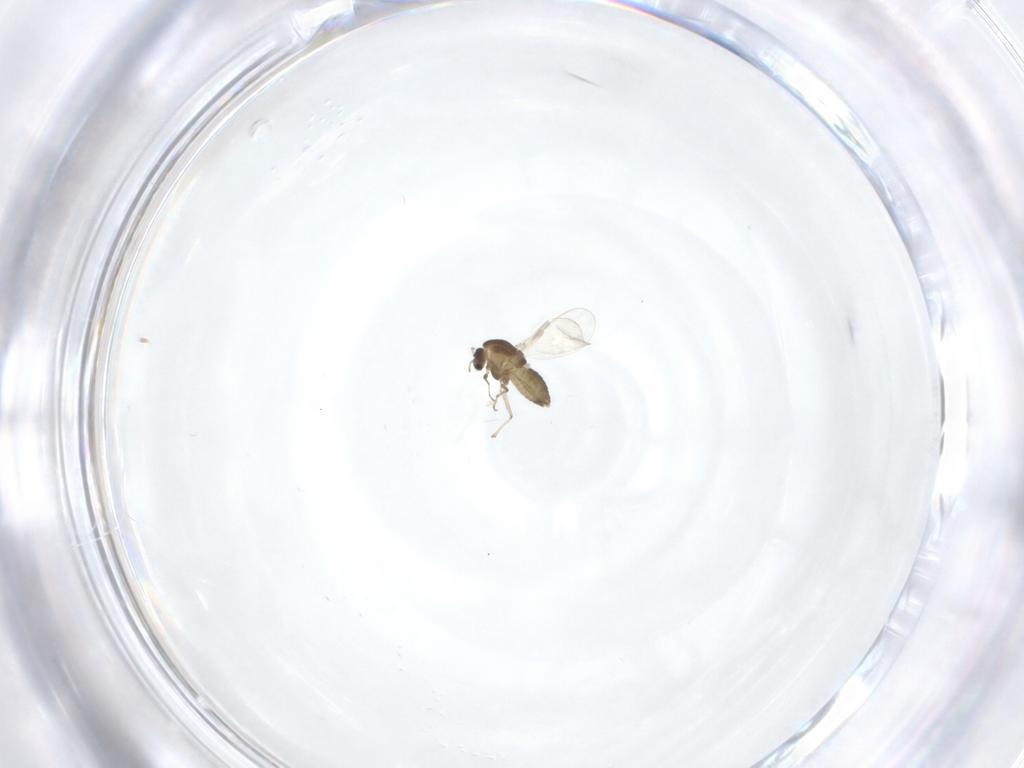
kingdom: Animalia
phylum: Arthropoda
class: Insecta
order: Diptera
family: Chironomidae
